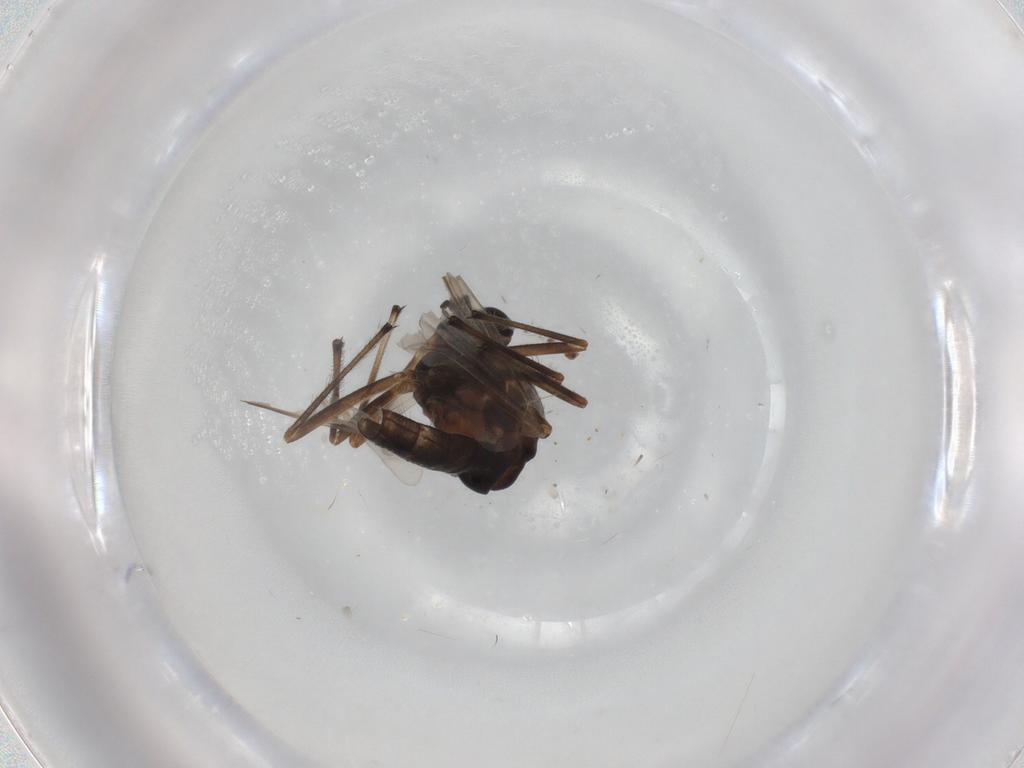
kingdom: Animalia
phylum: Arthropoda
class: Insecta
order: Diptera
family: Chironomidae
